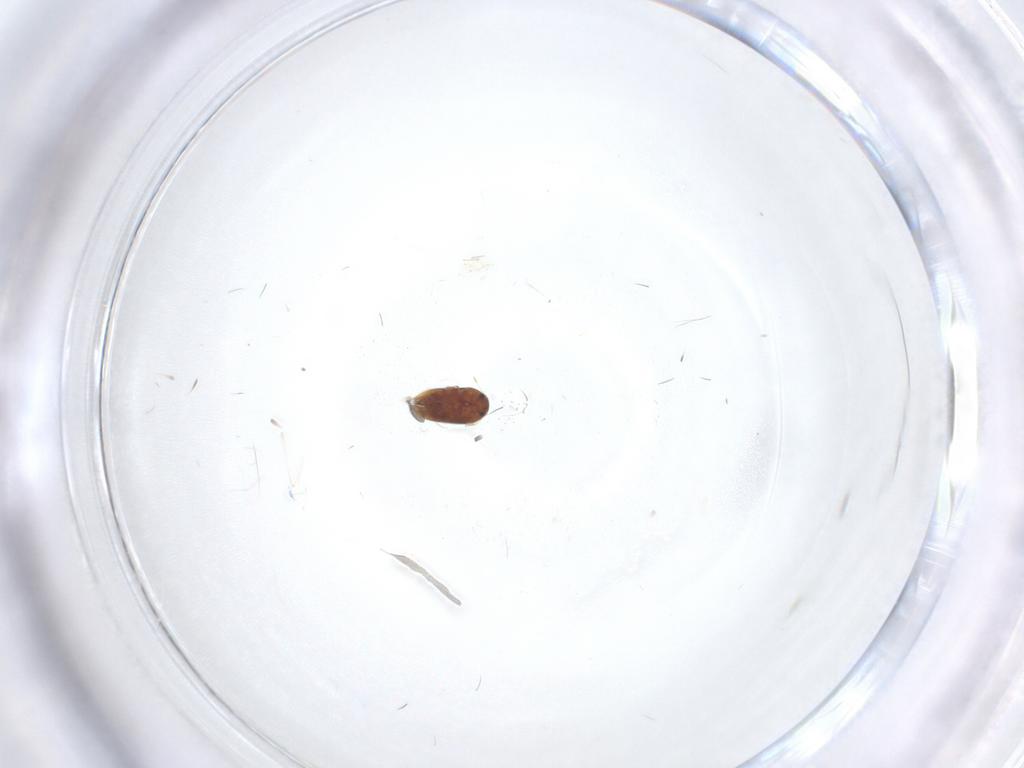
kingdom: Animalia
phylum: Arthropoda
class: Insecta
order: Coleoptera
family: Ptiliidae
